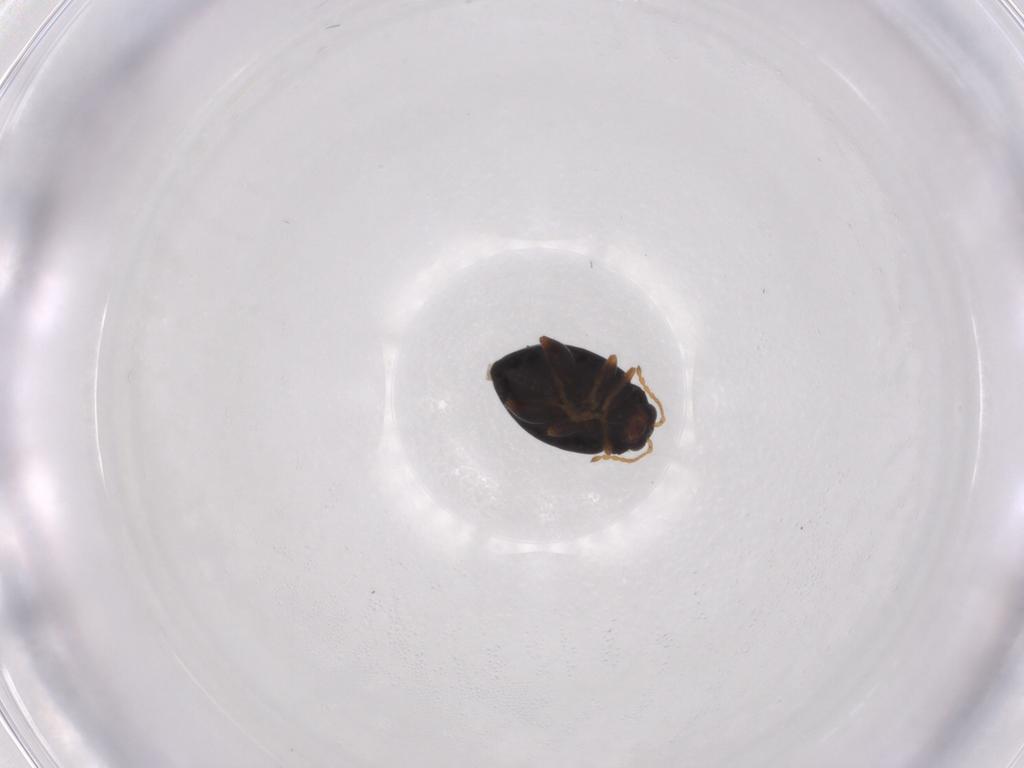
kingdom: Animalia
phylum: Arthropoda
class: Insecta
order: Coleoptera
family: Chrysomelidae
